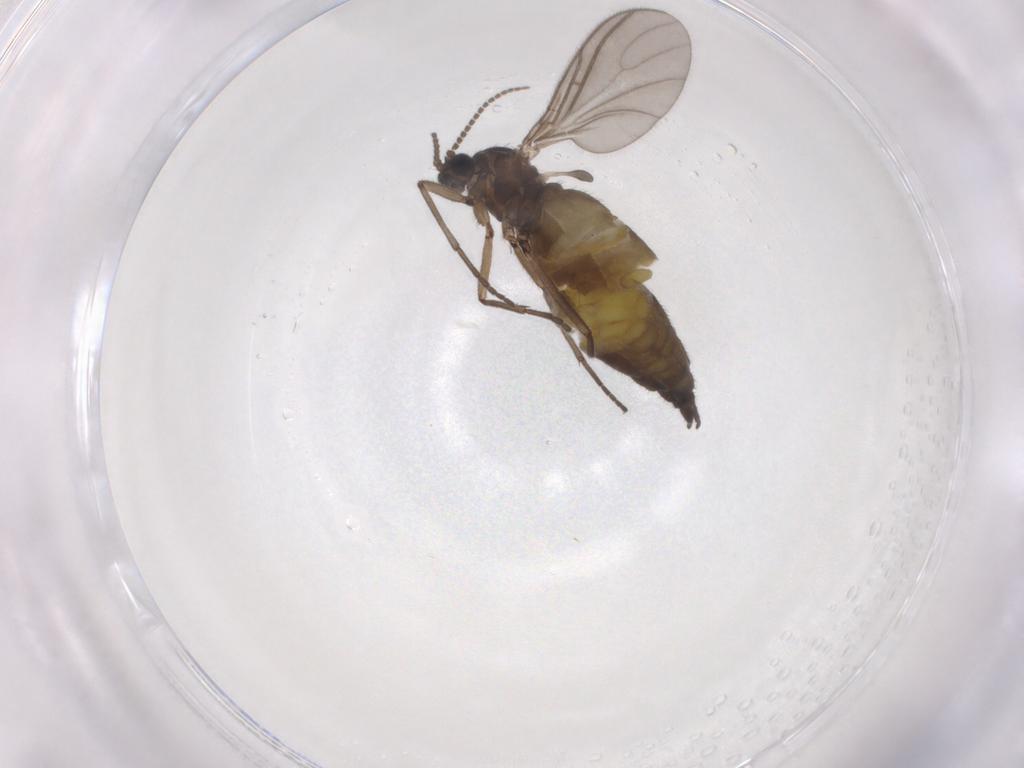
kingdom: Animalia
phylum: Arthropoda
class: Insecta
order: Diptera
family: Sciaridae
